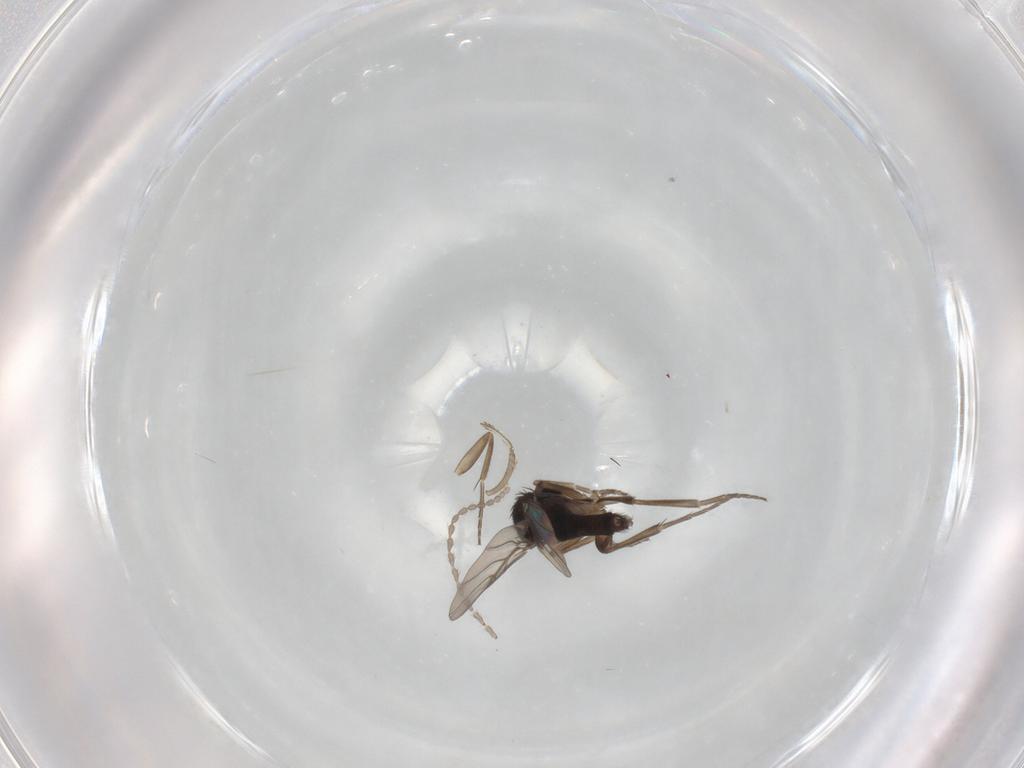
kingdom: Animalia
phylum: Arthropoda
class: Insecta
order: Diptera
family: Phoridae
